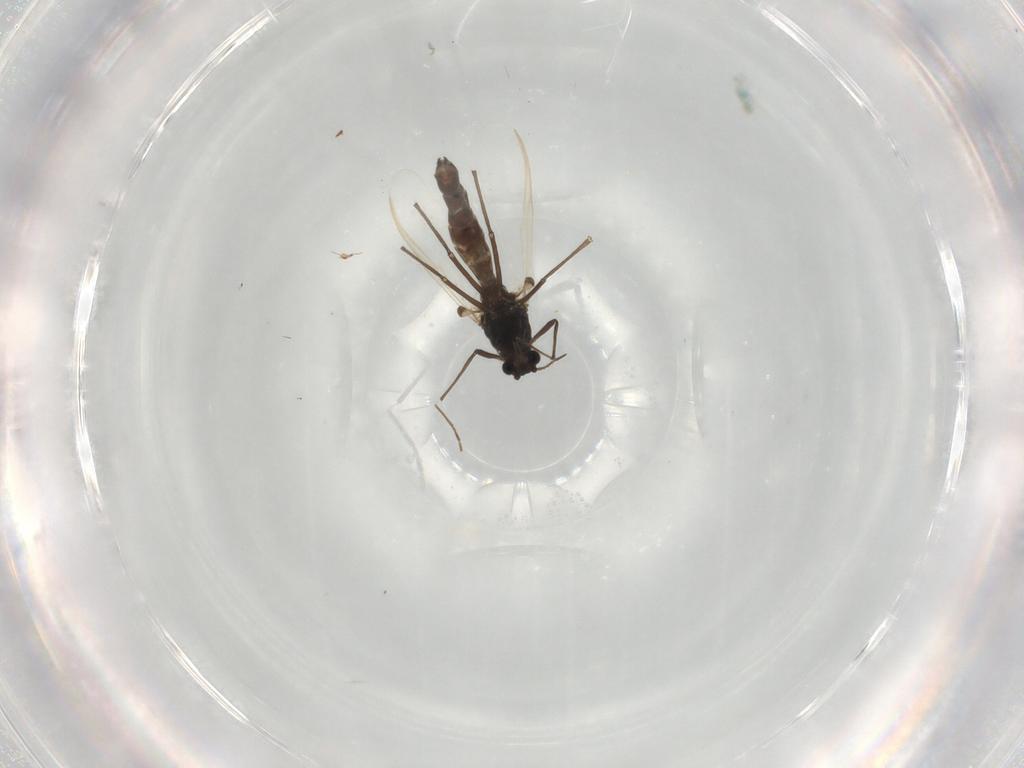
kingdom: Animalia
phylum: Arthropoda
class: Insecta
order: Diptera
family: Chironomidae
